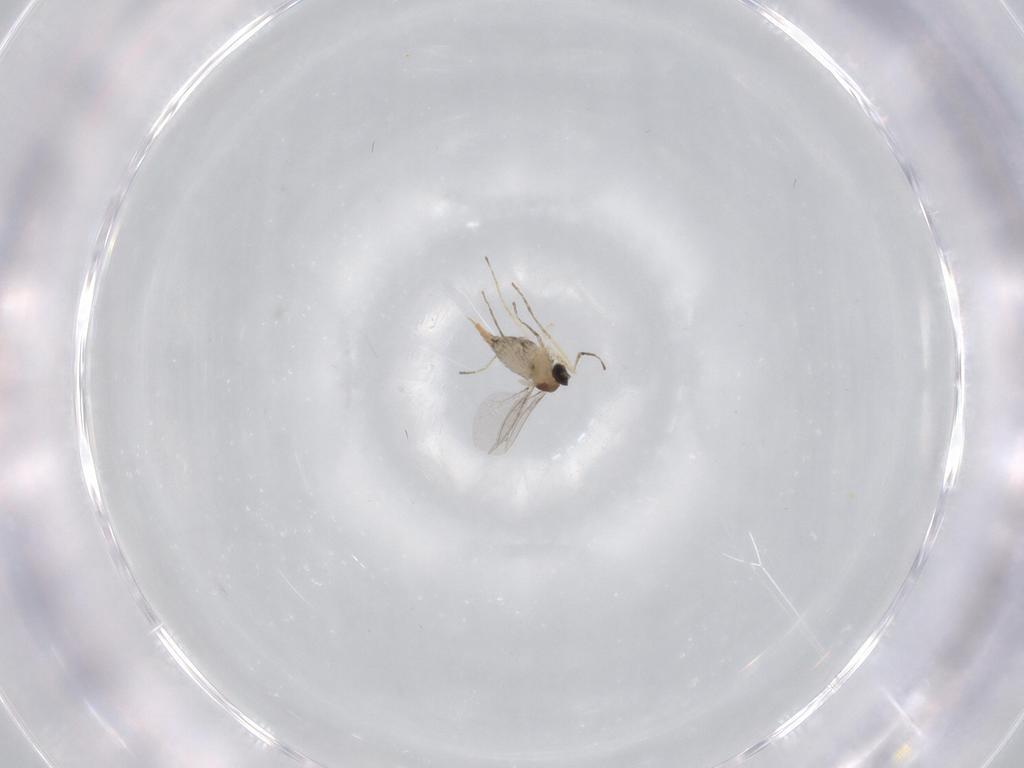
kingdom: Animalia
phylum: Arthropoda
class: Insecta
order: Diptera
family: Cecidomyiidae
